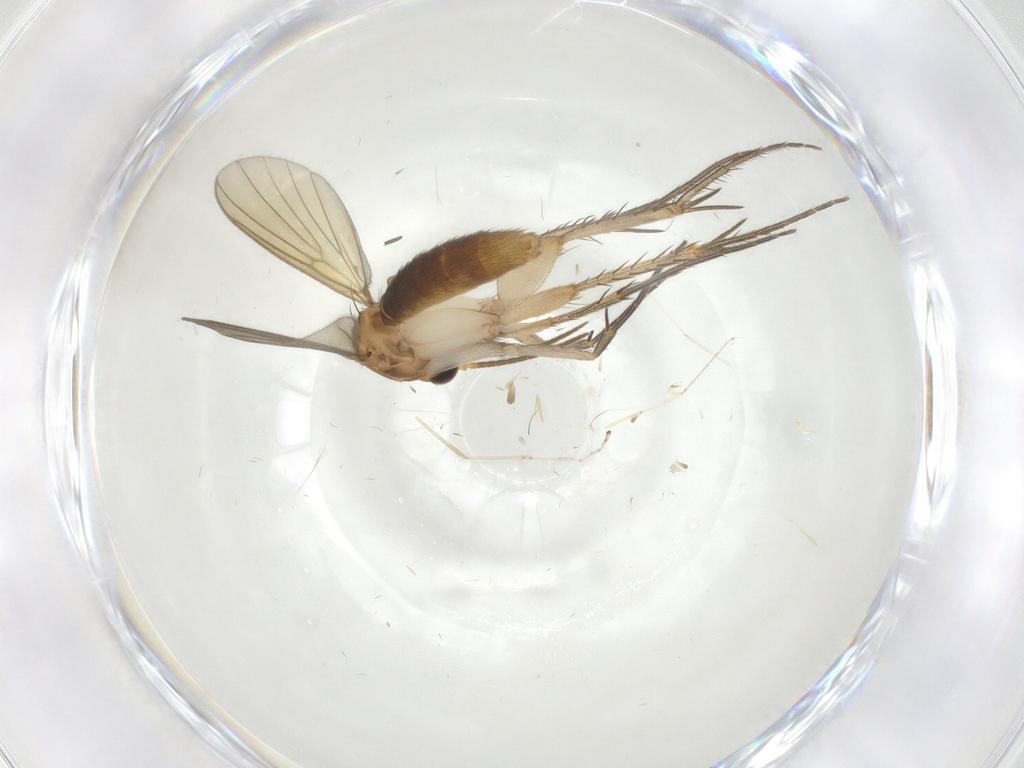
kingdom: Animalia
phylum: Arthropoda
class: Insecta
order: Diptera
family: Mycetophilidae
